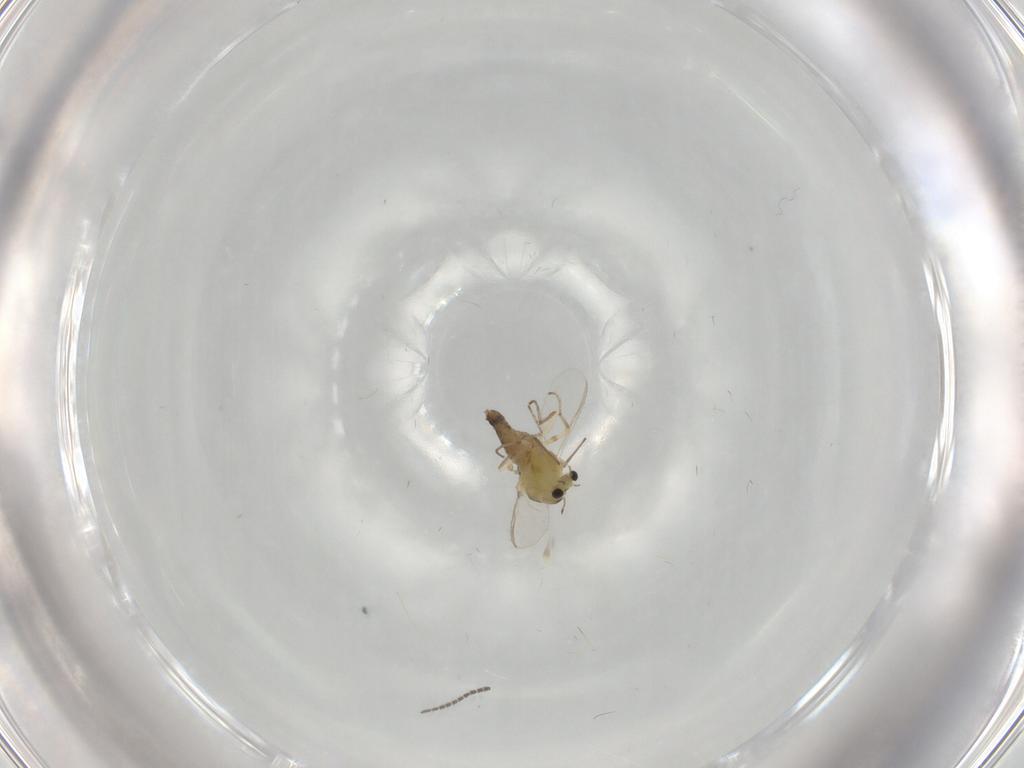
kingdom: Animalia
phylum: Arthropoda
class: Insecta
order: Diptera
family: Chironomidae
